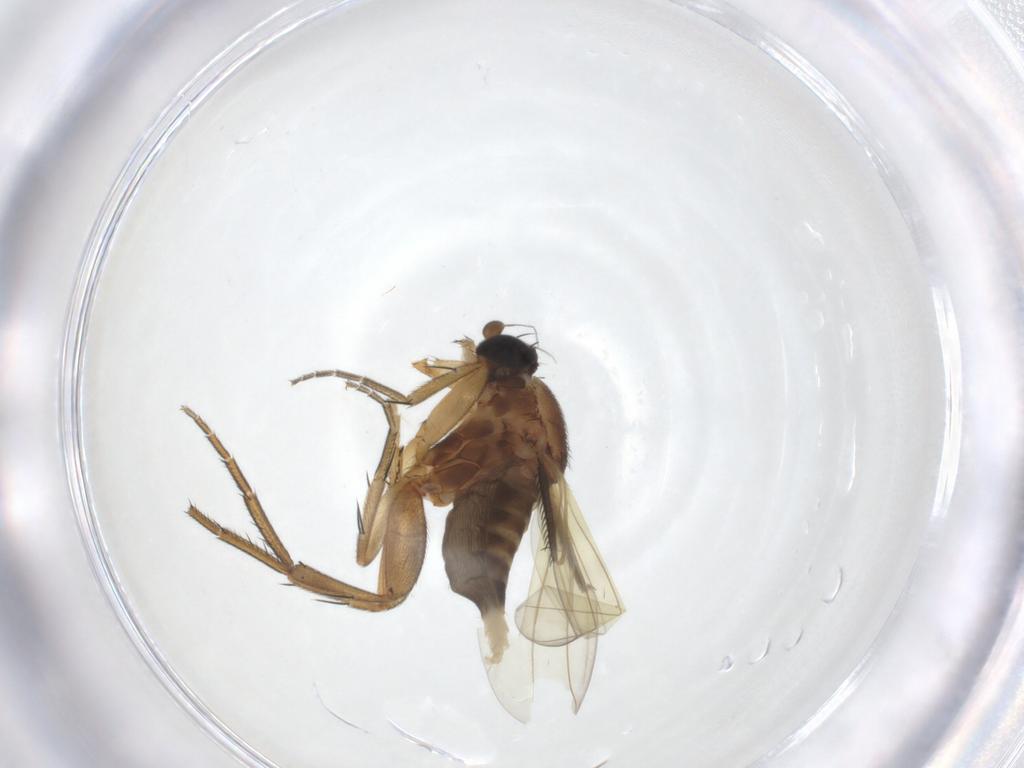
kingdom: Animalia
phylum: Arthropoda
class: Insecta
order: Diptera
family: Phoridae
